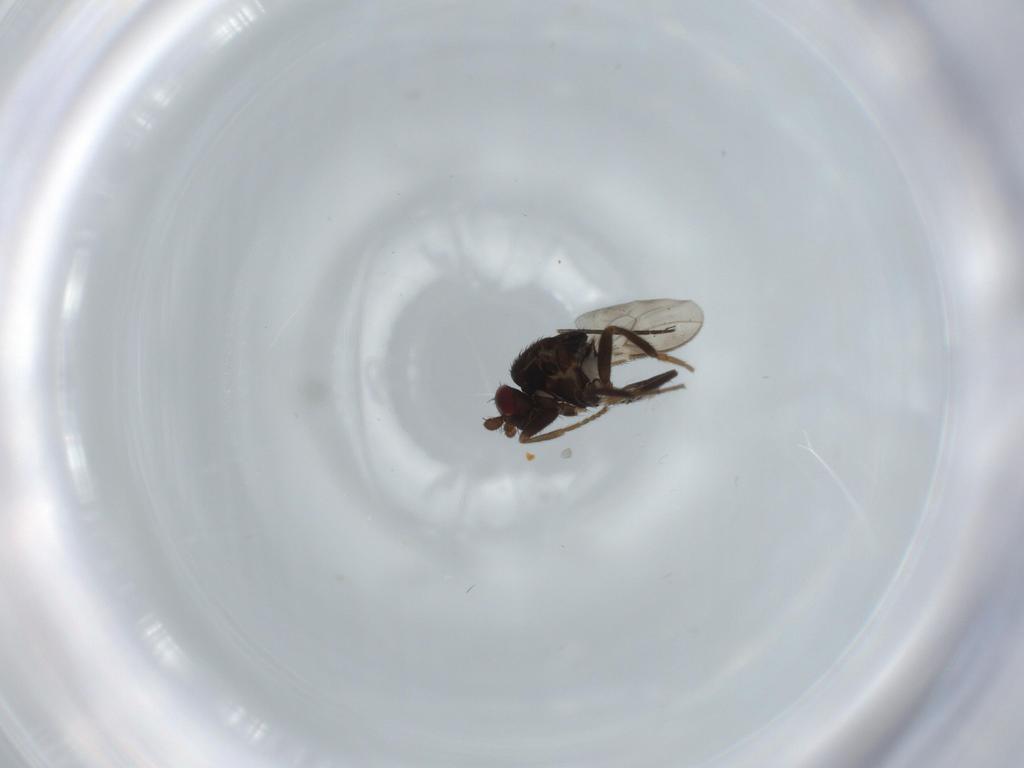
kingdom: Animalia
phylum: Arthropoda
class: Insecta
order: Diptera
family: Sphaeroceridae
